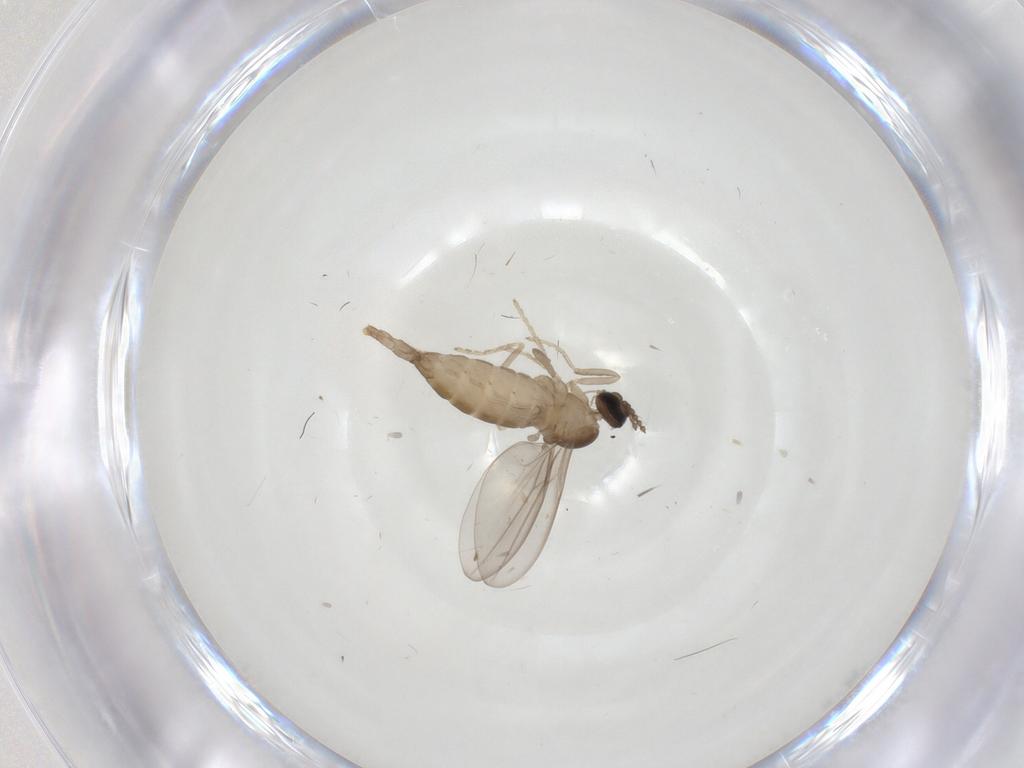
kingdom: Animalia
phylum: Arthropoda
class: Insecta
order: Diptera
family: Cecidomyiidae
